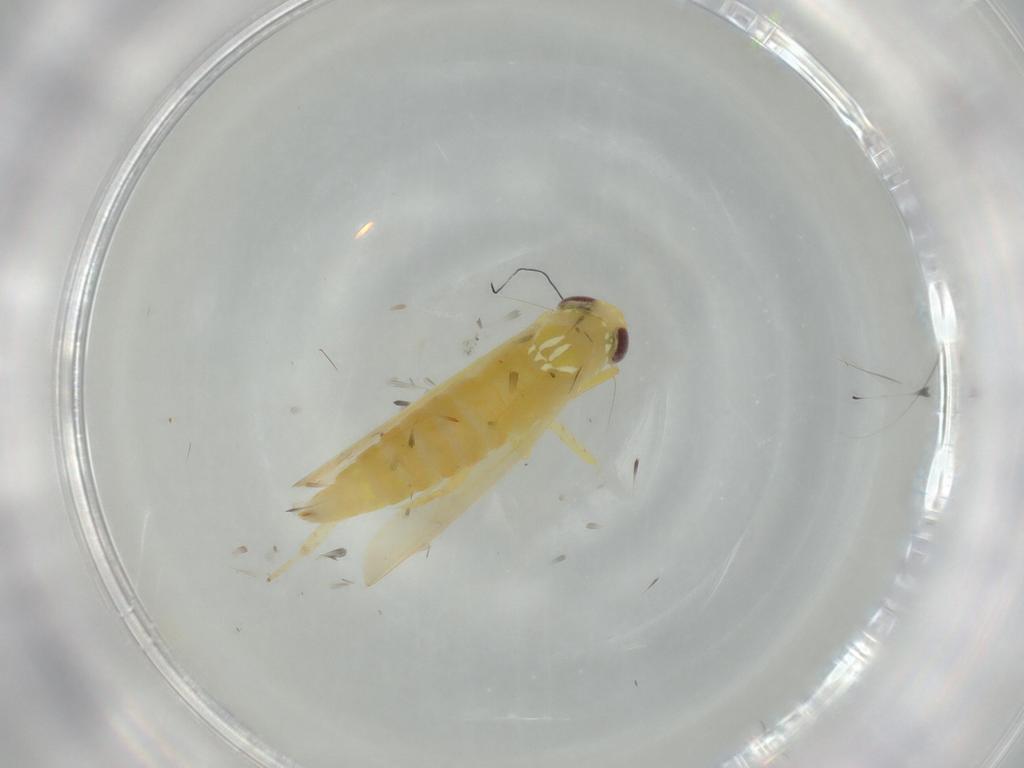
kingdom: Animalia
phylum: Arthropoda
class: Insecta
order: Hemiptera
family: Cicadellidae
